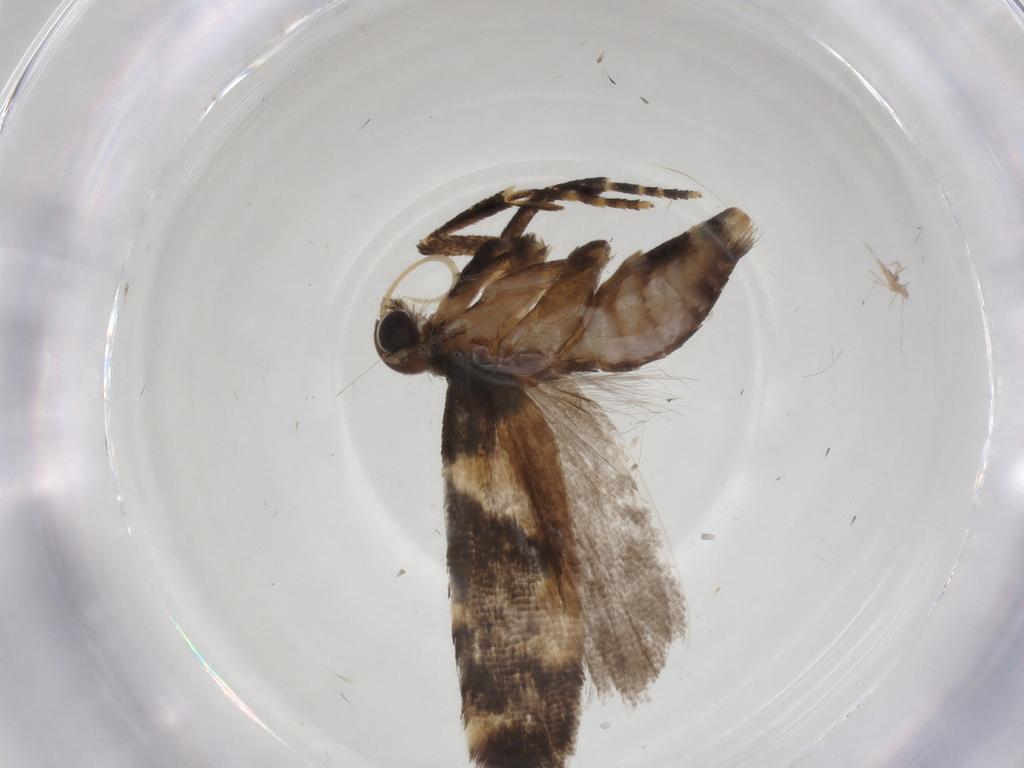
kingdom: Animalia
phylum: Arthropoda
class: Insecta
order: Lepidoptera
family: Gelechiidae
